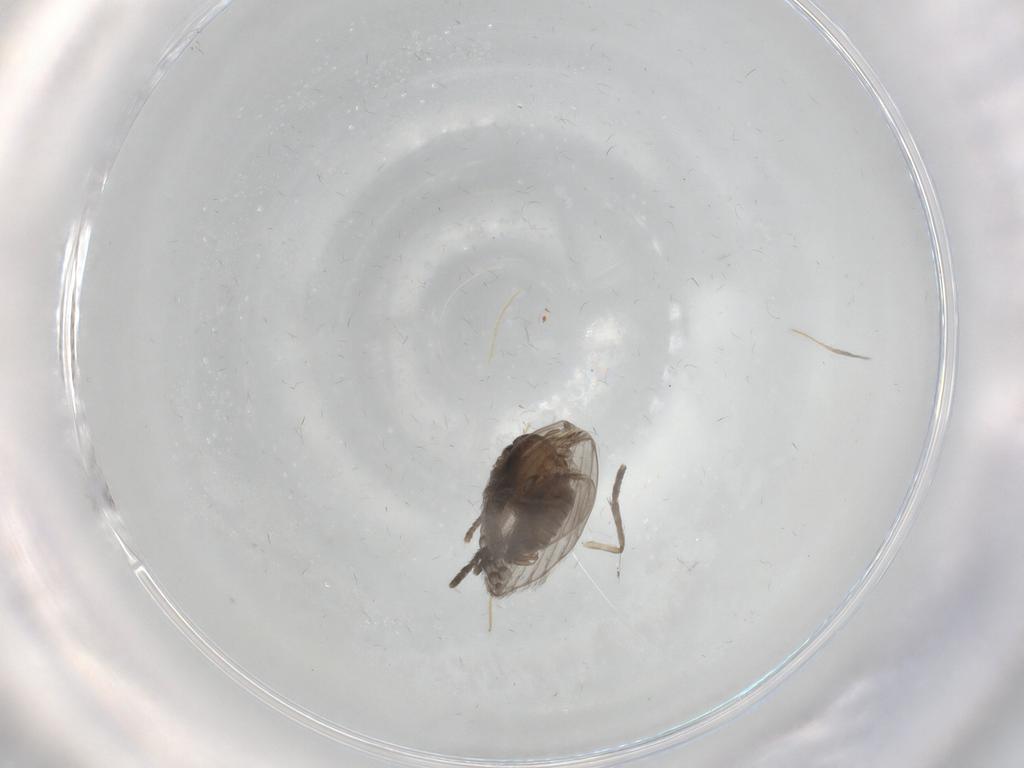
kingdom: Animalia
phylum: Arthropoda
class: Insecta
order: Diptera
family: Psychodidae
